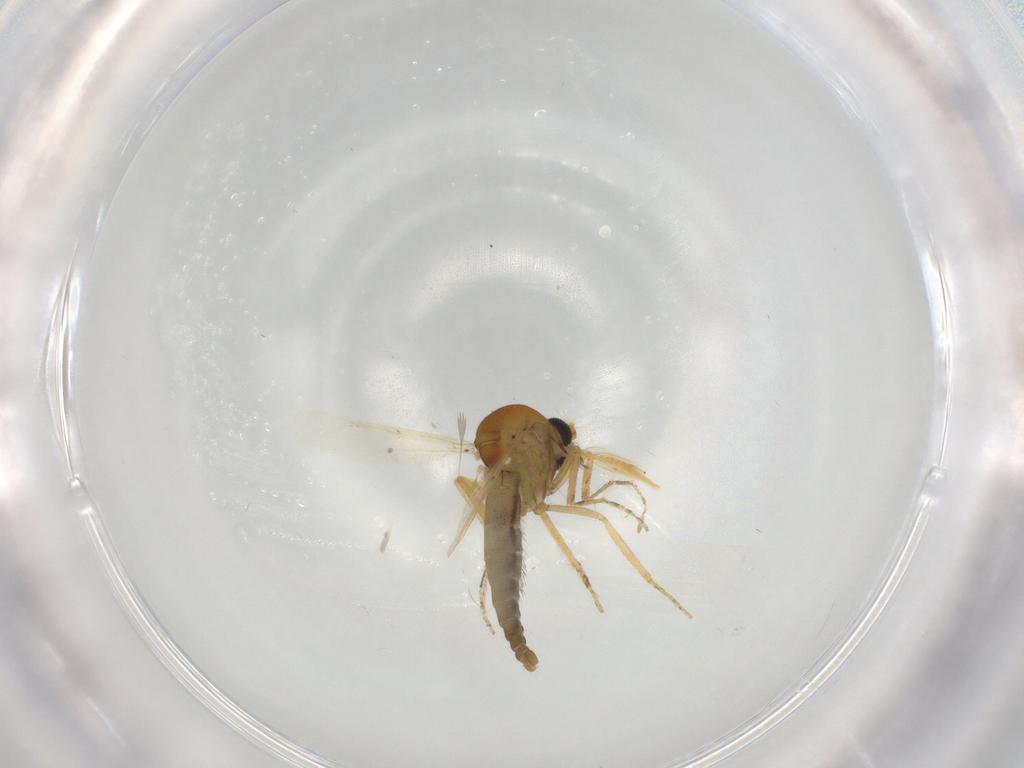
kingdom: Animalia
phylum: Arthropoda
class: Insecta
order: Diptera
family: Ceratopogonidae
